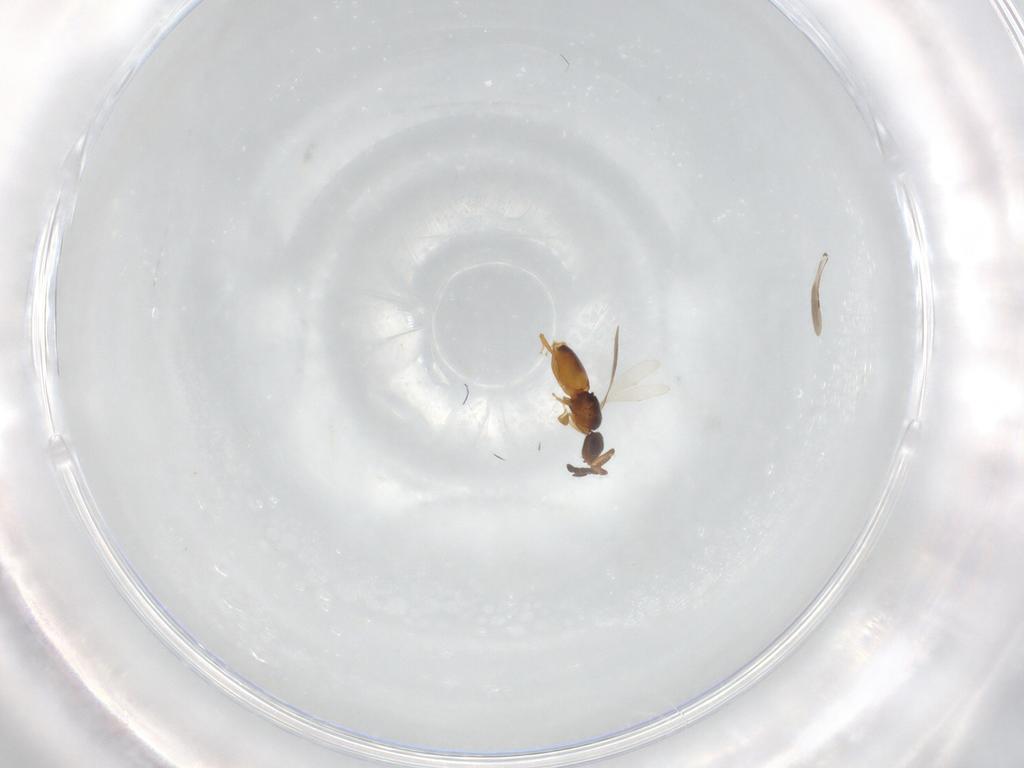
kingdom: Animalia
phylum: Arthropoda
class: Insecta
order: Hymenoptera
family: Ceraphronidae
